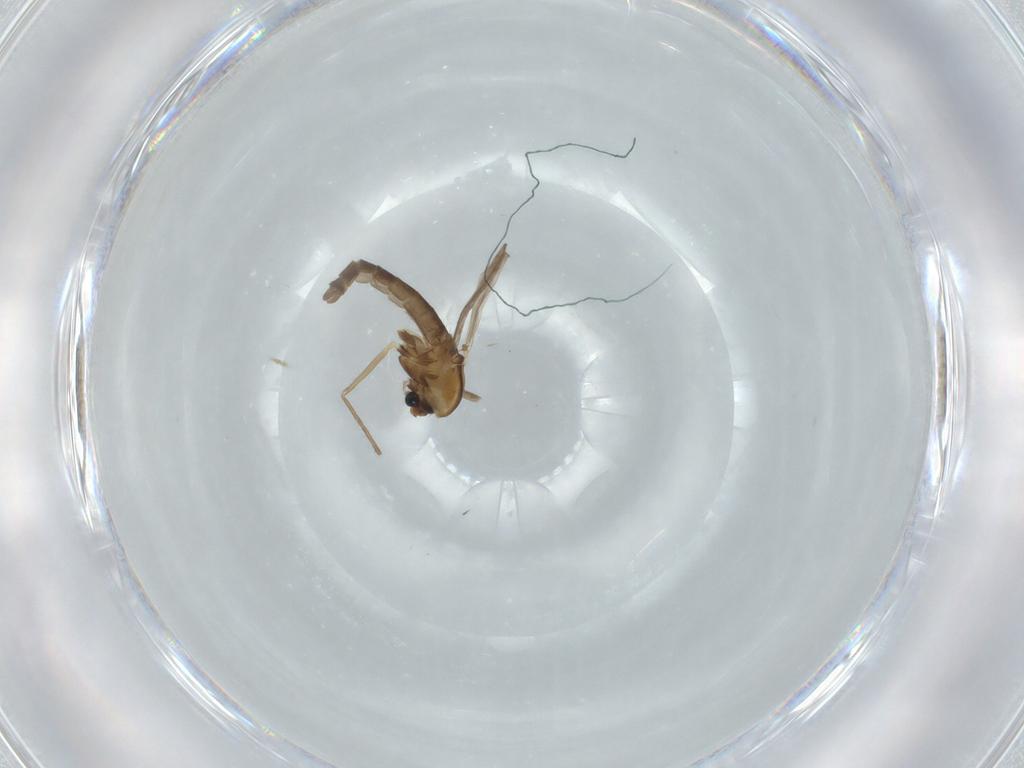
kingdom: Animalia
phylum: Arthropoda
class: Insecta
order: Diptera
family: Chironomidae
